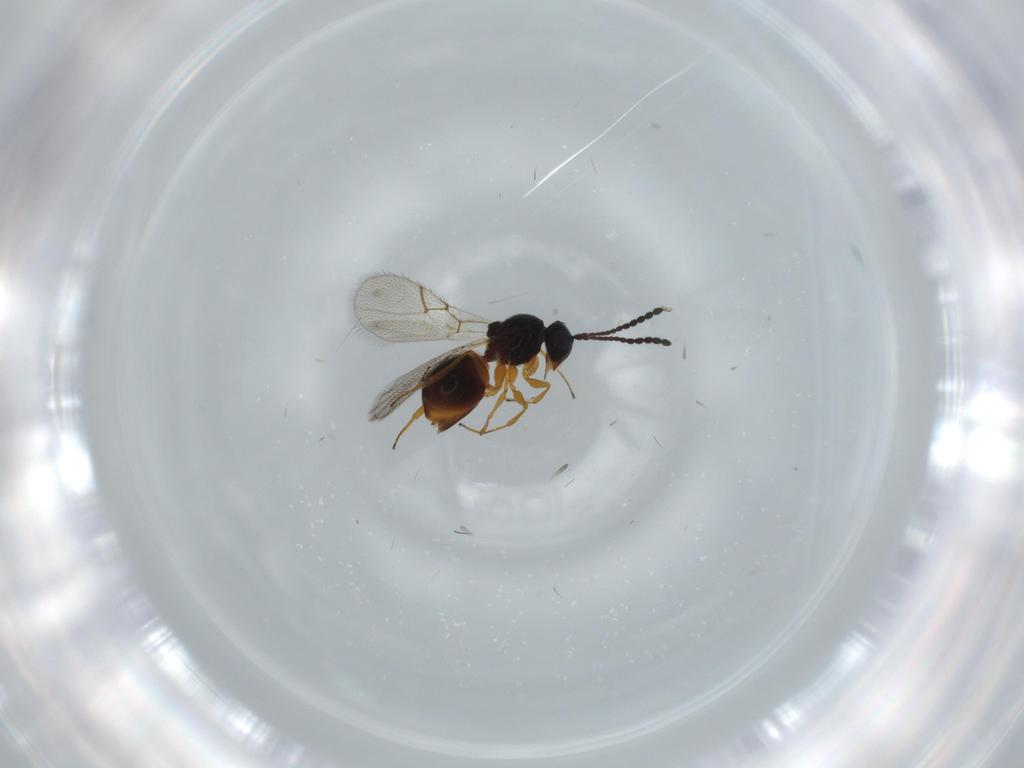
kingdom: Animalia
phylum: Arthropoda
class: Insecta
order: Hymenoptera
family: Figitidae
